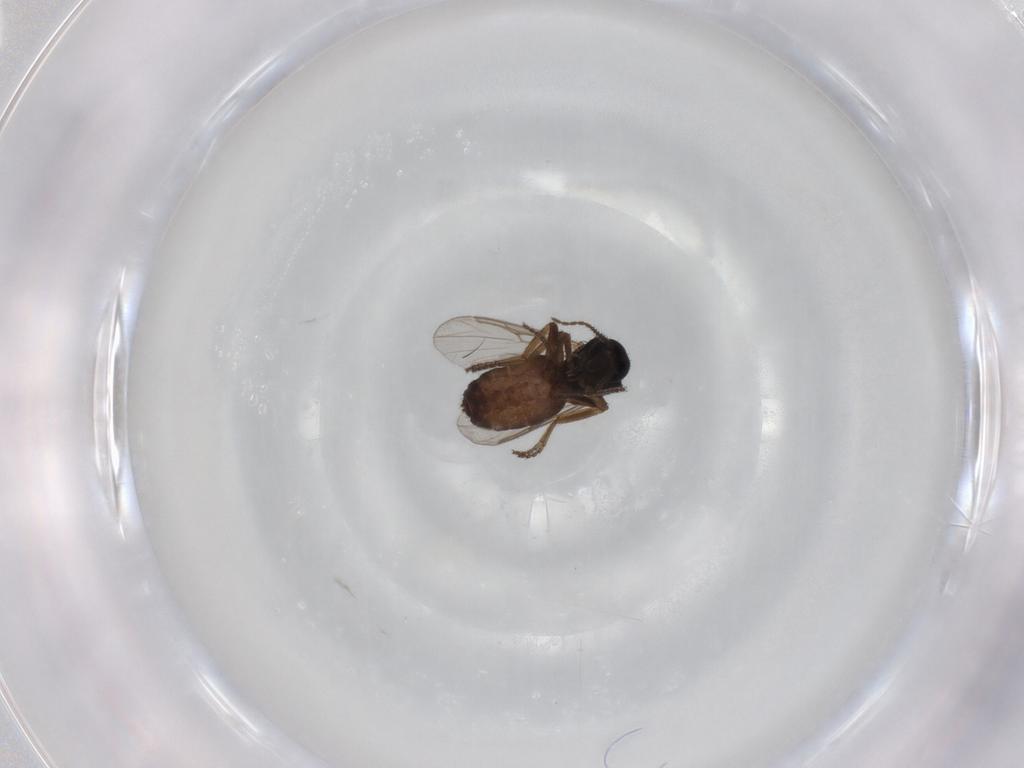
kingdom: Animalia
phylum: Arthropoda
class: Insecta
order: Diptera
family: Ceratopogonidae
